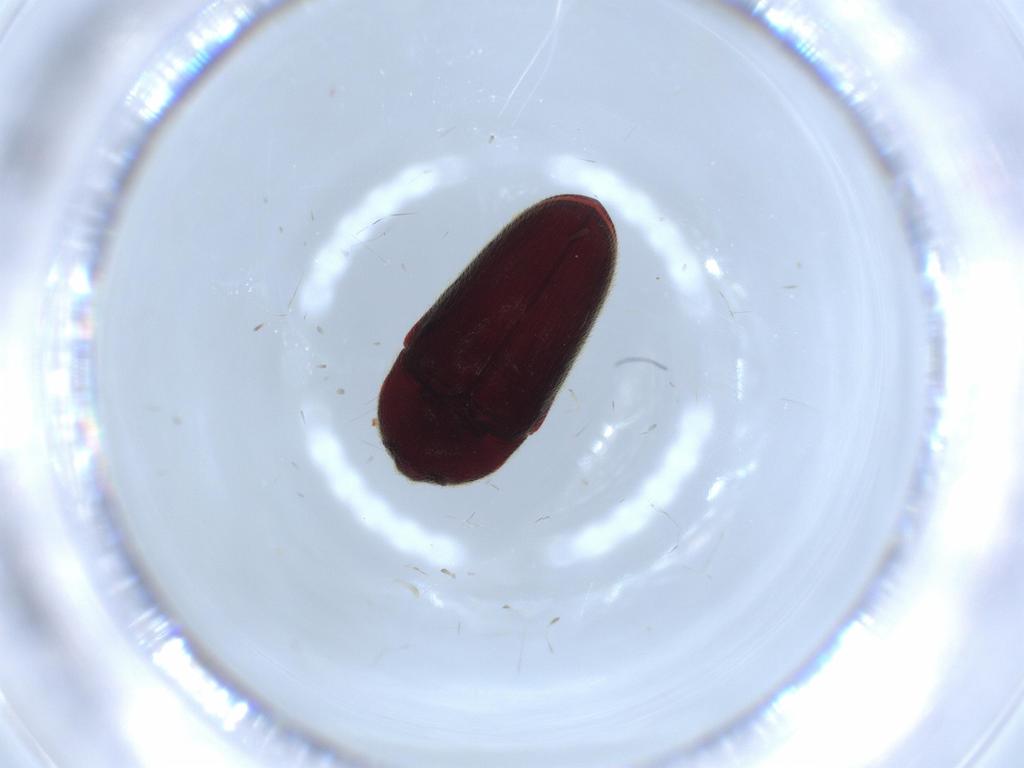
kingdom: Animalia
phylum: Arthropoda
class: Insecta
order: Coleoptera
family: Throscidae
